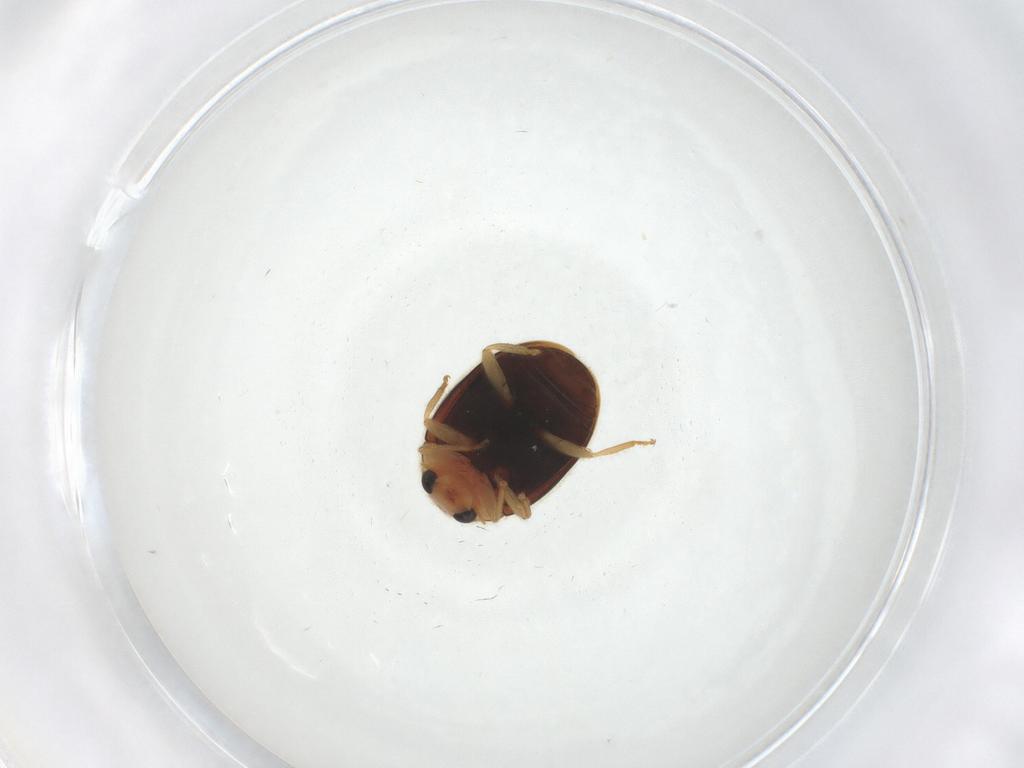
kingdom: Animalia
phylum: Arthropoda
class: Insecta
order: Coleoptera
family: Coccinellidae
